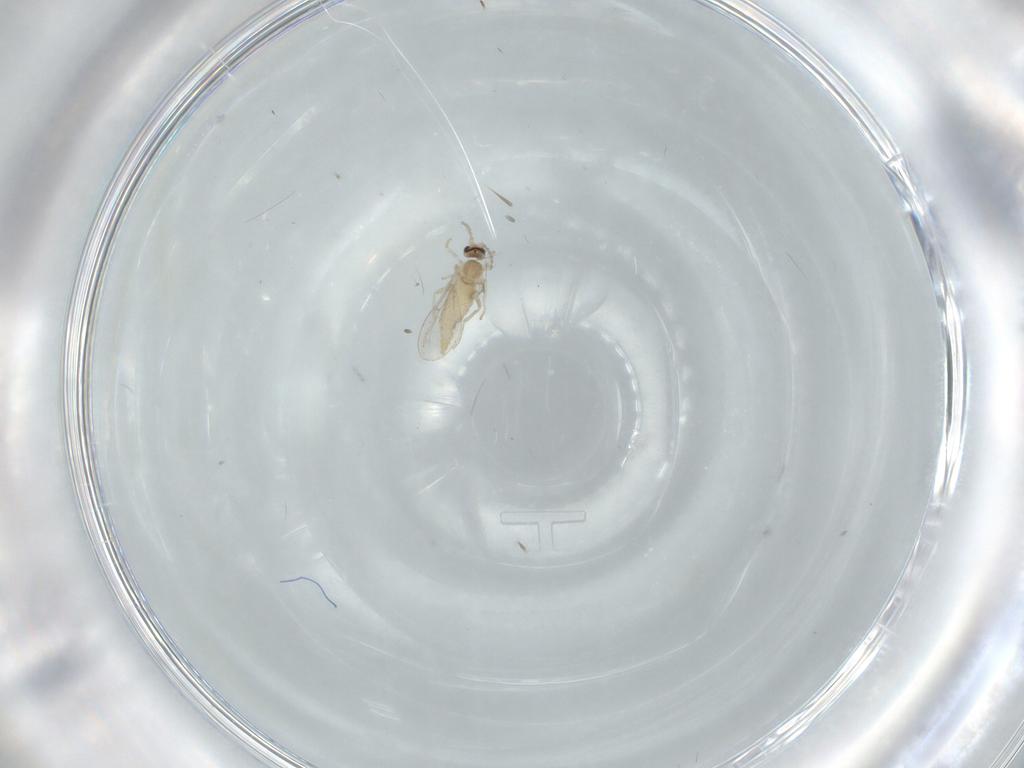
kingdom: Animalia
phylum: Arthropoda
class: Insecta
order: Diptera
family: Cecidomyiidae
